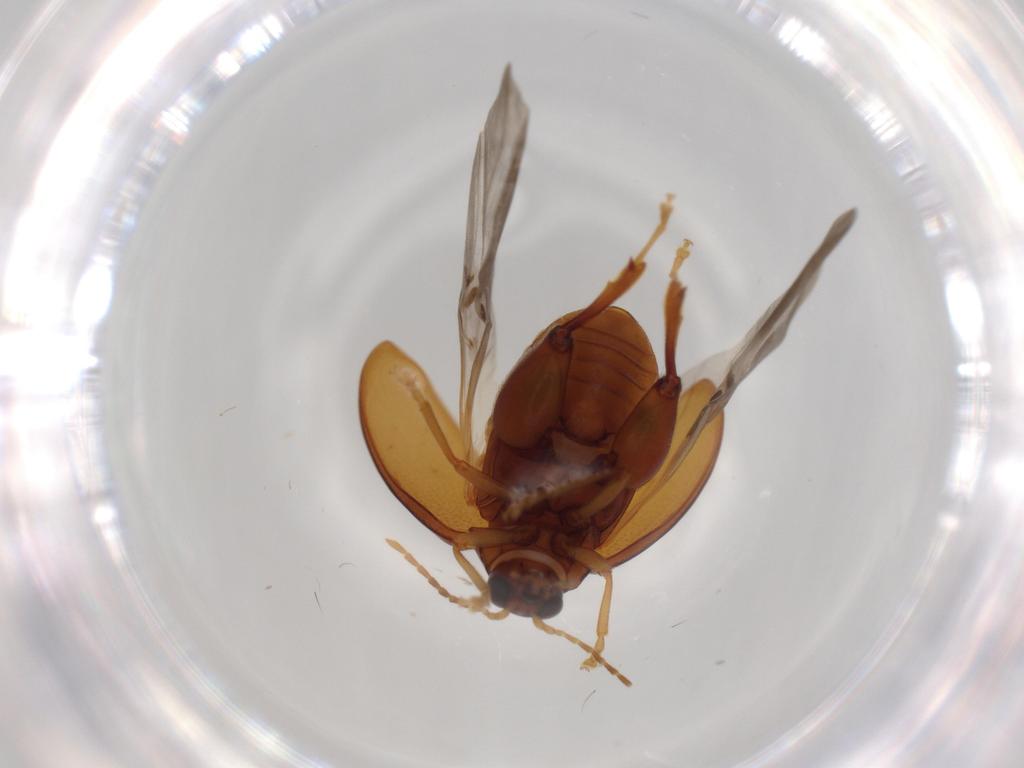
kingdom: Animalia
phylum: Arthropoda
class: Insecta
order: Coleoptera
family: Chrysomelidae
